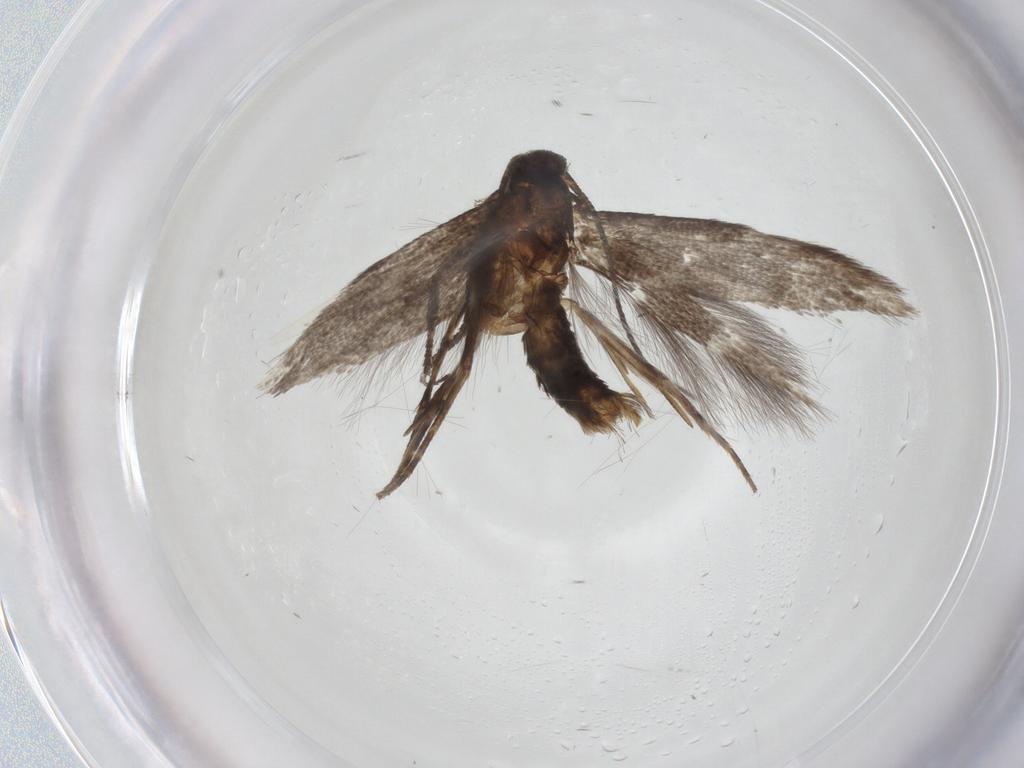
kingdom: Animalia
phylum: Arthropoda
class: Insecta
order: Lepidoptera
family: Elachistidae
